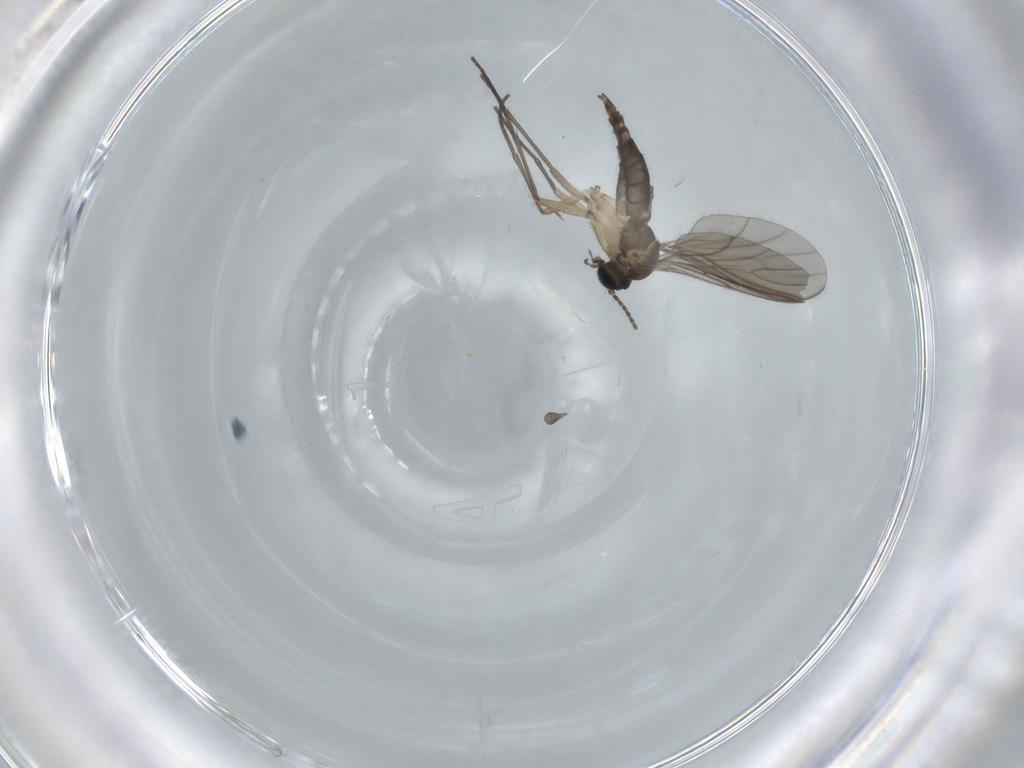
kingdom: Animalia
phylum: Arthropoda
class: Insecta
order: Diptera
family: Sciaridae
